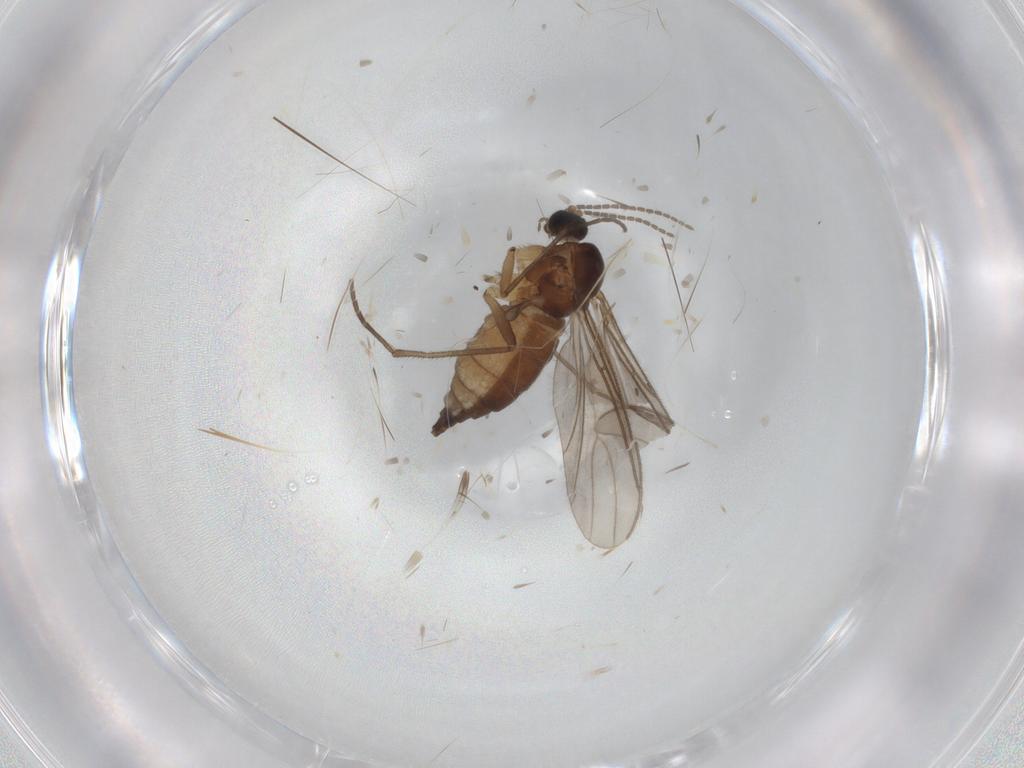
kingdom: Animalia
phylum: Arthropoda
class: Insecta
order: Diptera
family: Sciaridae
